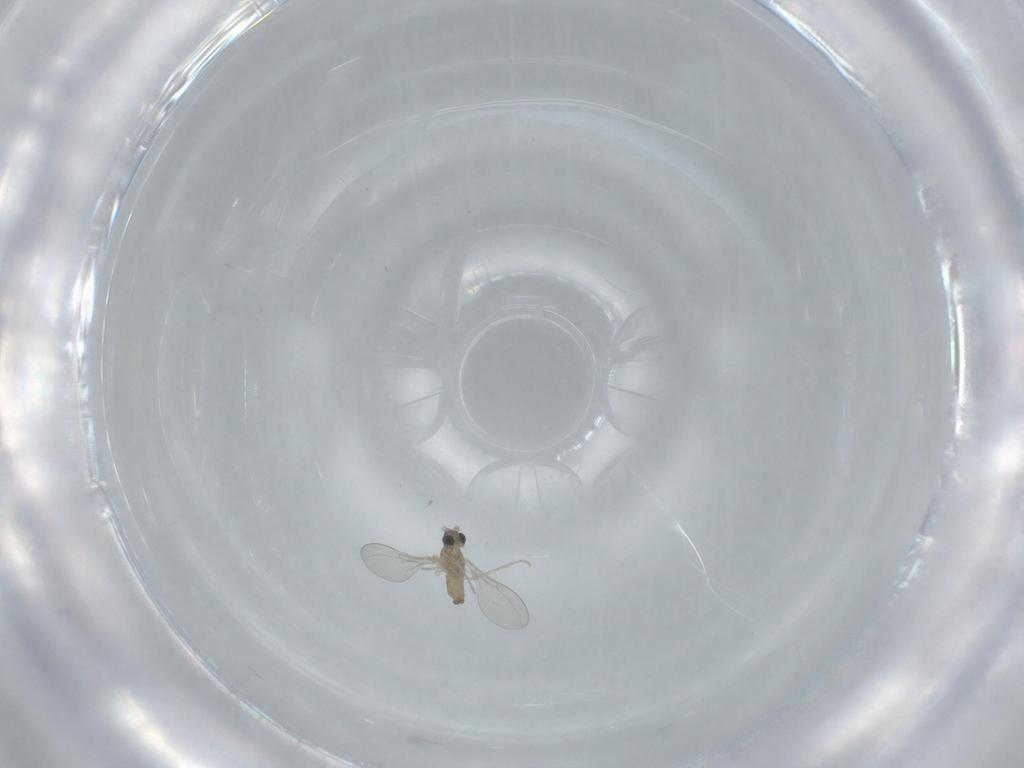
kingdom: Animalia
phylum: Arthropoda
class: Insecta
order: Diptera
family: Cecidomyiidae
